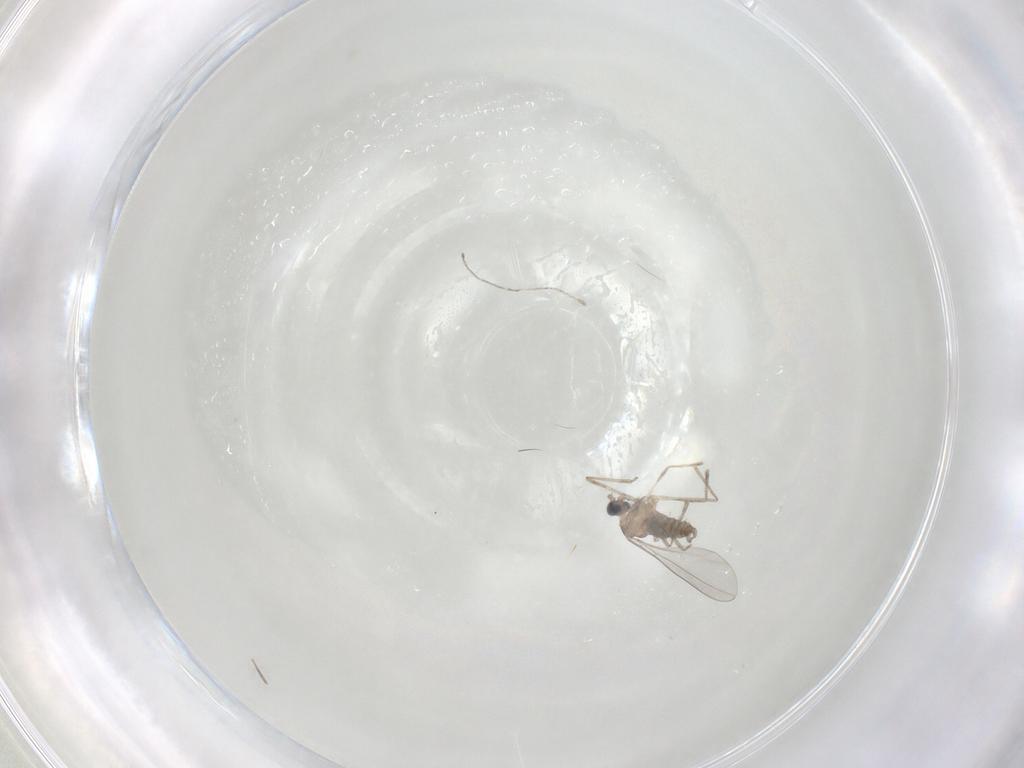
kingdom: Animalia
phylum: Arthropoda
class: Insecta
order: Diptera
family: Cecidomyiidae
